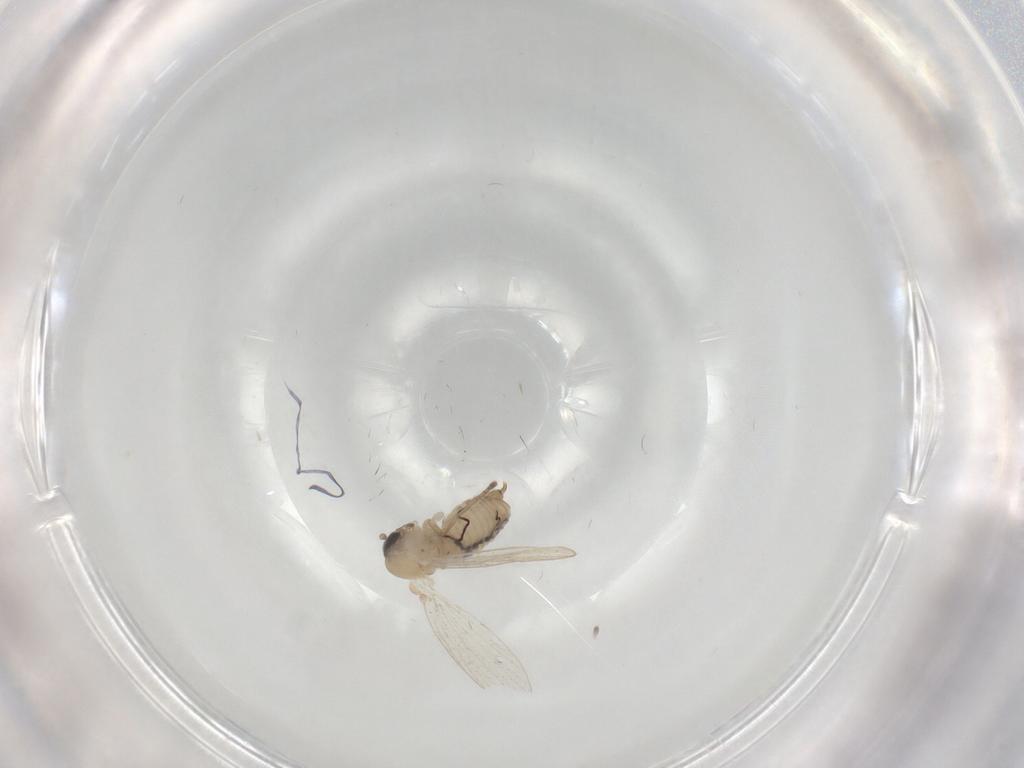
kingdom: Animalia
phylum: Arthropoda
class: Insecta
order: Diptera
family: Psychodidae
